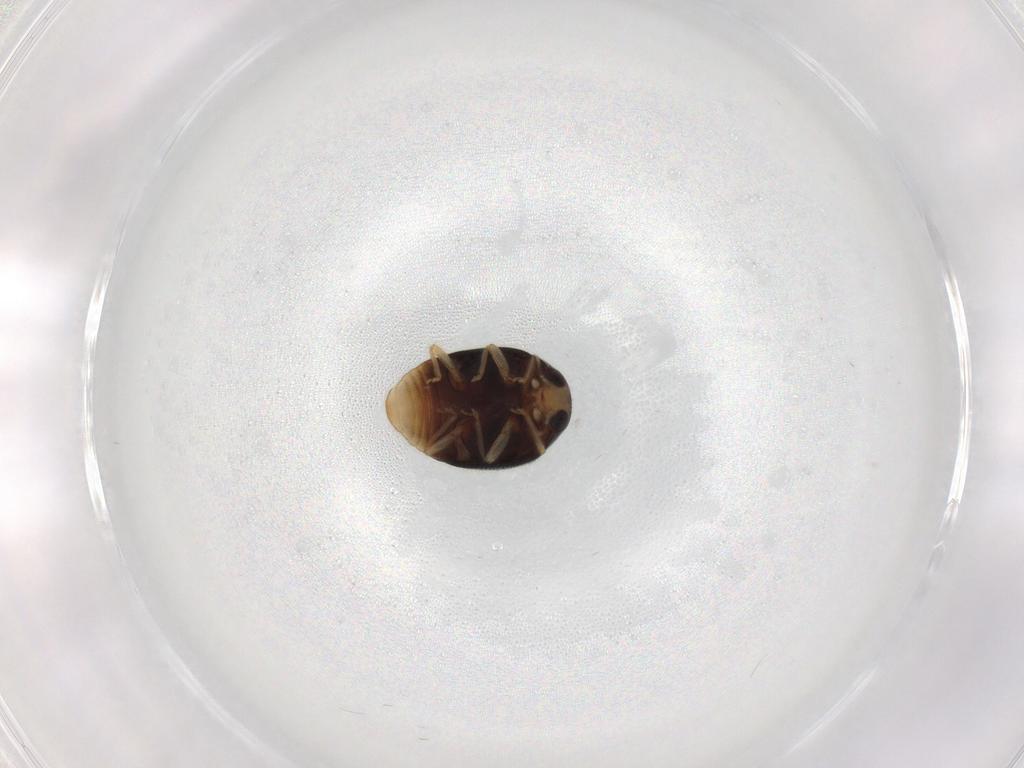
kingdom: Animalia
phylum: Arthropoda
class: Insecta
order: Coleoptera
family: Coccinellidae
